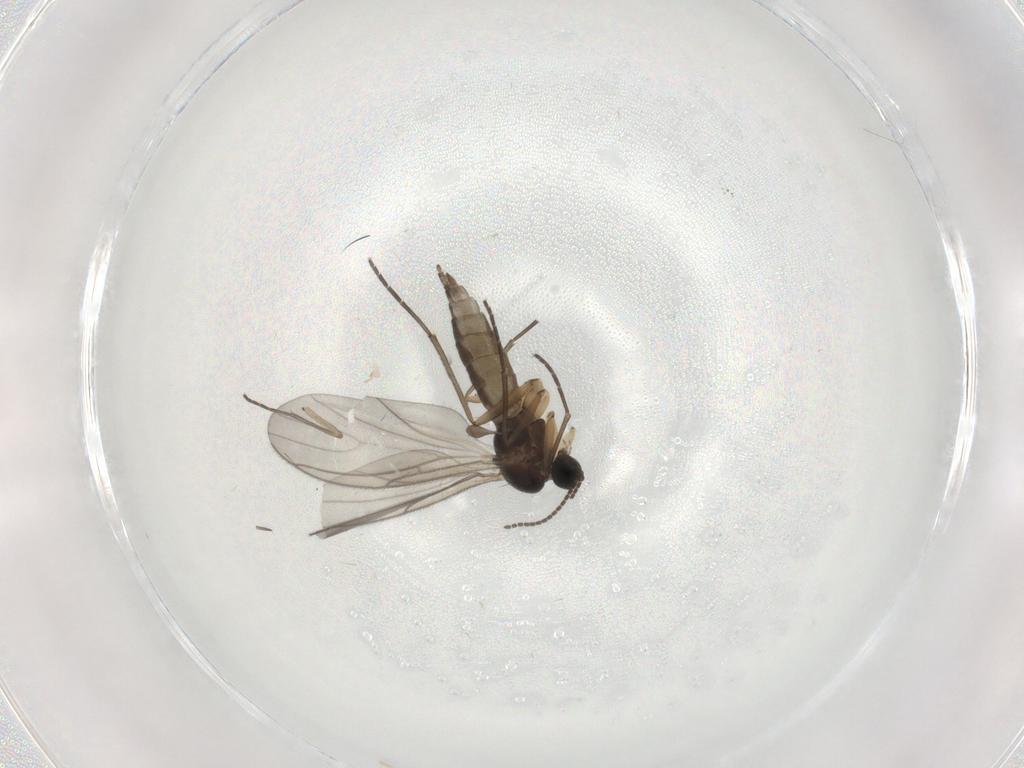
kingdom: Animalia
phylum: Arthropoda
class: Insecta
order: Diptera
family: Sciaridae
